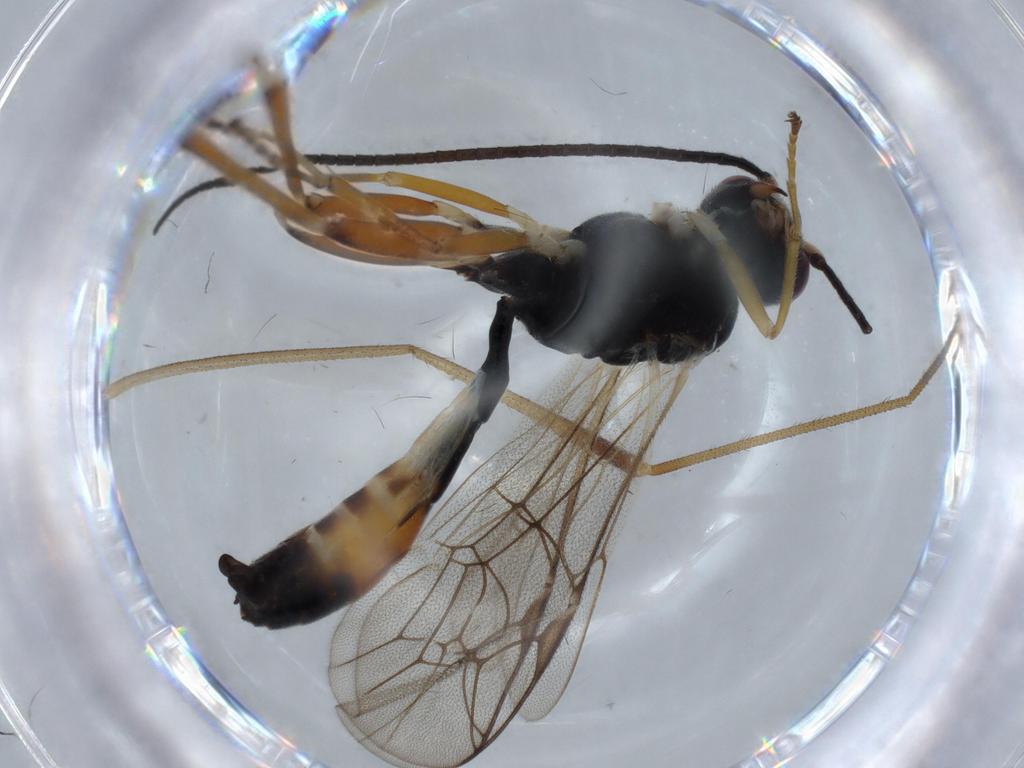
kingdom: Animalia
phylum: Arthropoda
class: Insecta
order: Hymenoptera
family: Ichneumonidae
